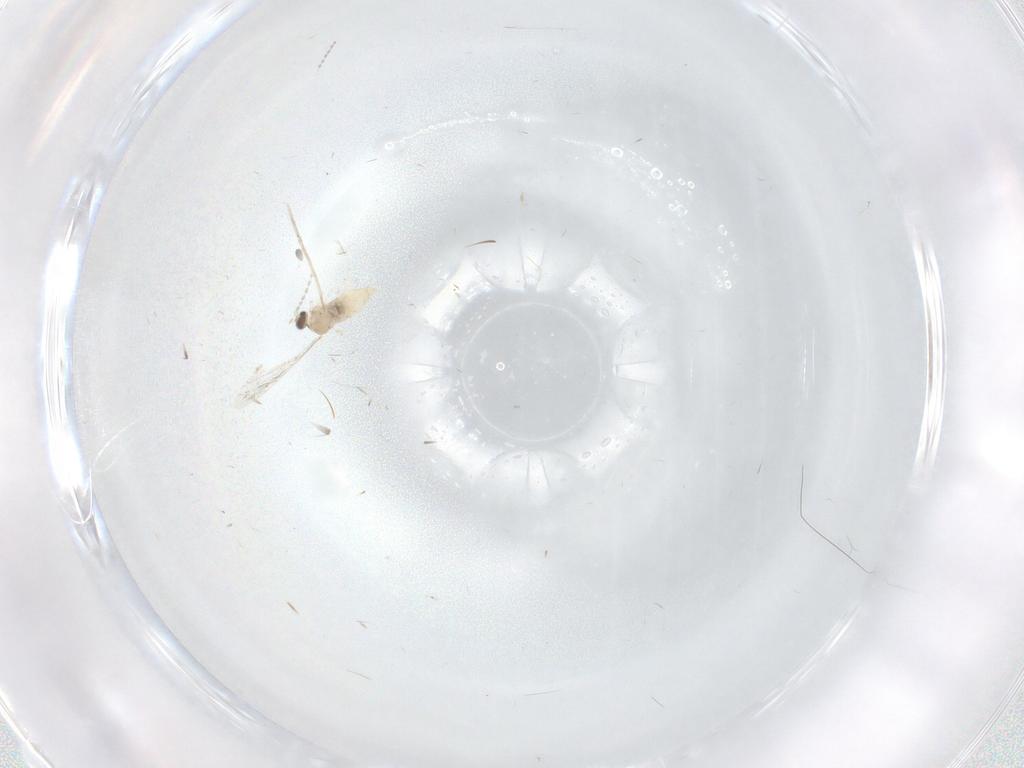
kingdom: Animalia
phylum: Arthropoda
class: Insecta
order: Diptera
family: Cecidomyiidae
